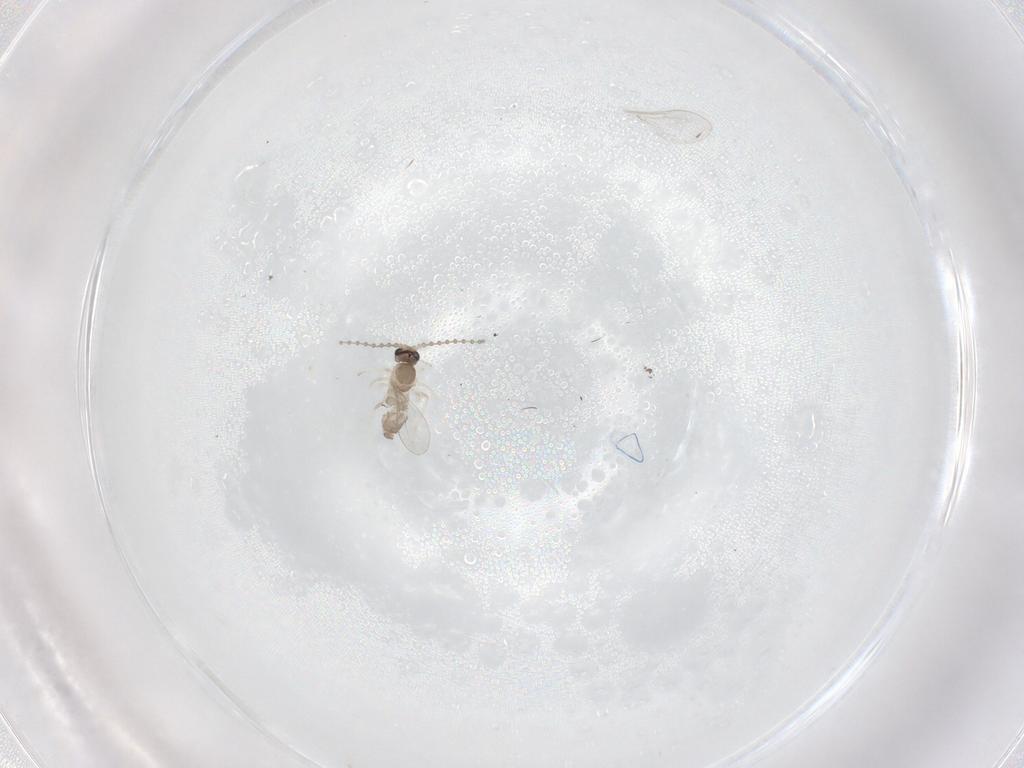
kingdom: Animalia
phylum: Arthropoda
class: Insecta
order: Diptera
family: Cecidomyiidae
